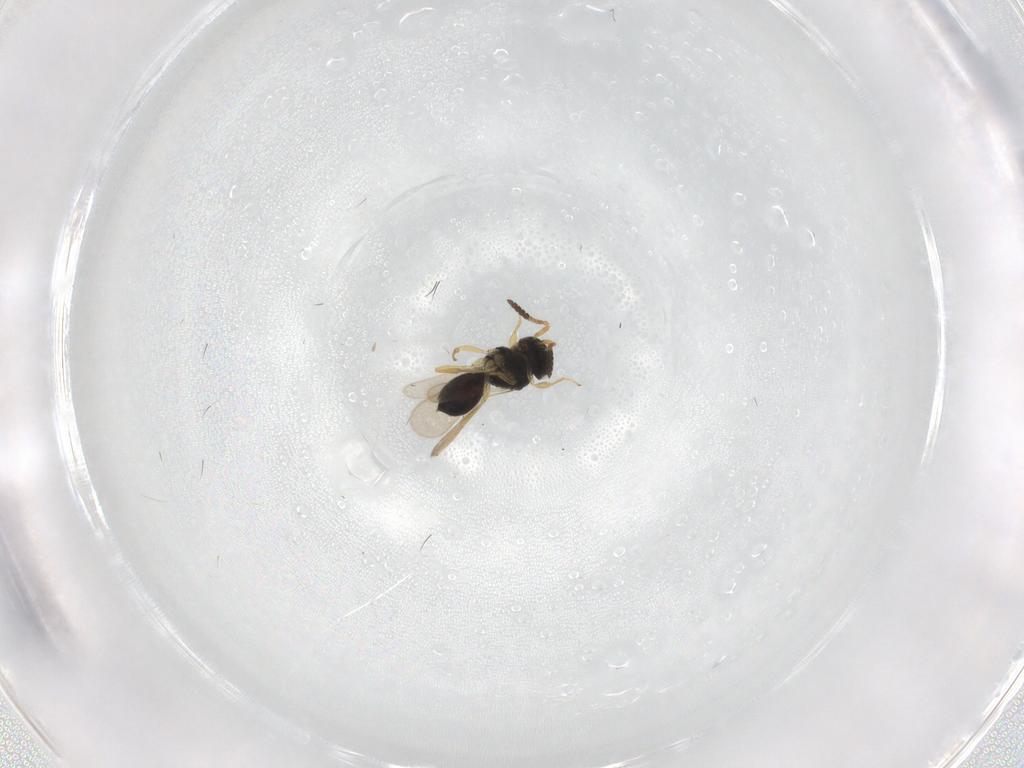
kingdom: Animalia
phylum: Arthropoda
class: Insecta
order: Hymenoptera
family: Scelionidae
